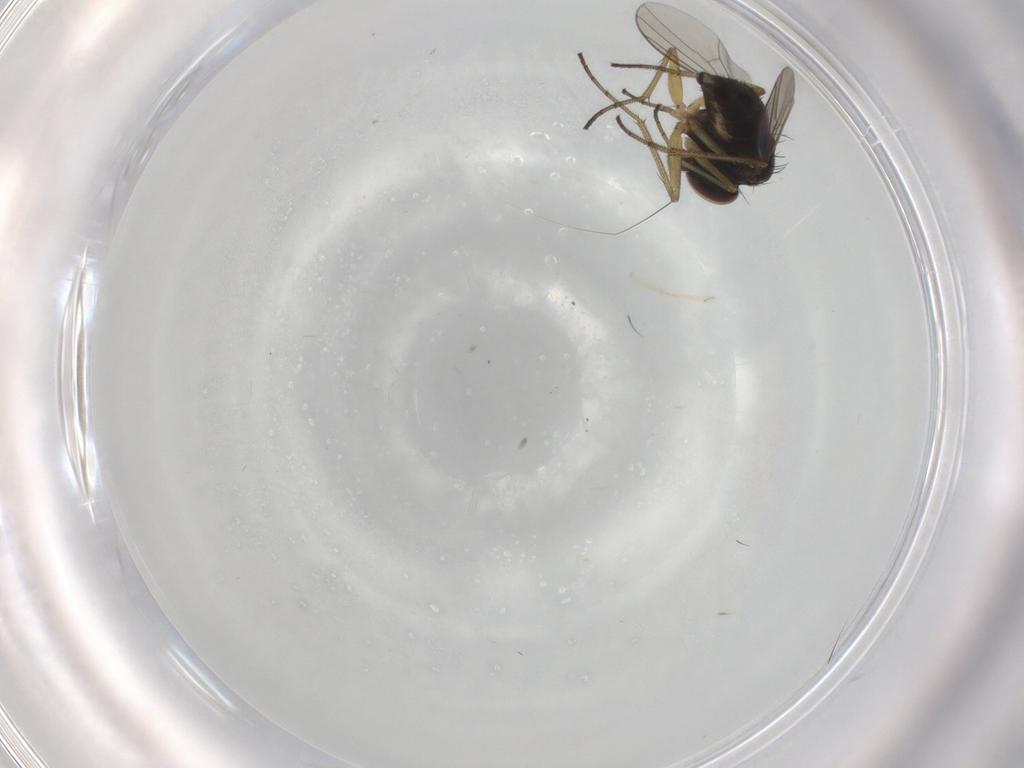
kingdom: Animalia
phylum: Arthropoda
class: Insecta
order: Diptera
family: Dolichopodidae
